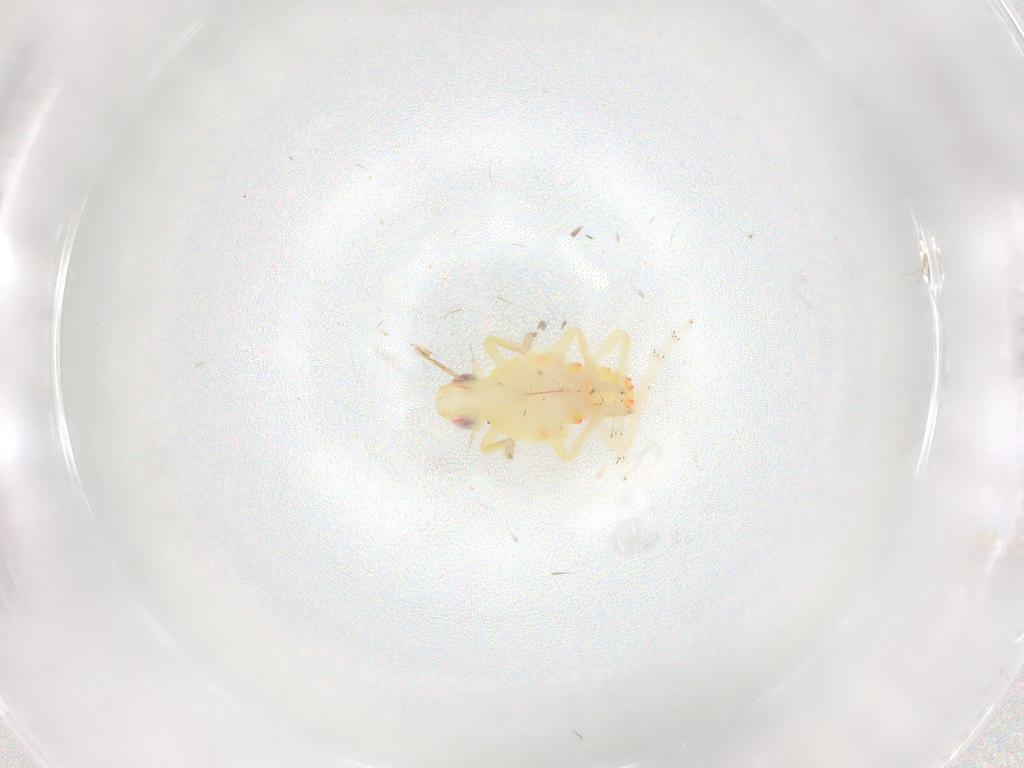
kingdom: Animalia
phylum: Arthropoda
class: Insecta
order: Hemiptera
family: Tropiduchidae
